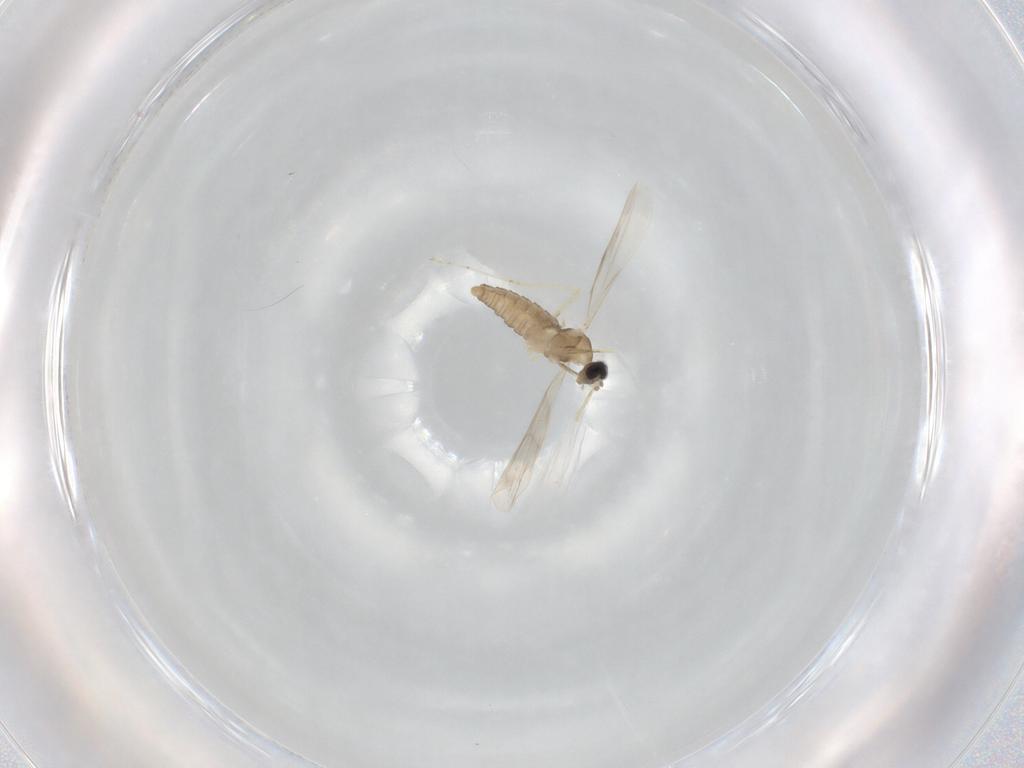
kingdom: Animalia
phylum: Arthropoda
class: Insecta
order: Diptera
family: Cecidomyiidae
